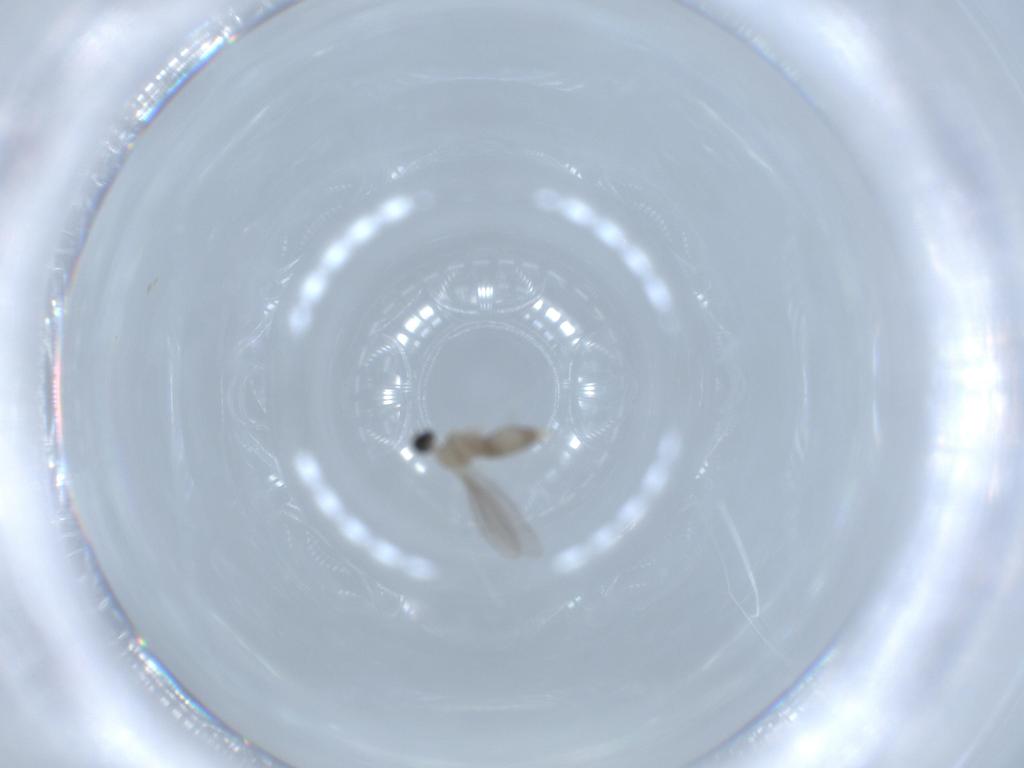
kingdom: Animalia
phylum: Arthropoda
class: Insecta
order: Diptera
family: Cecidomyiidae
